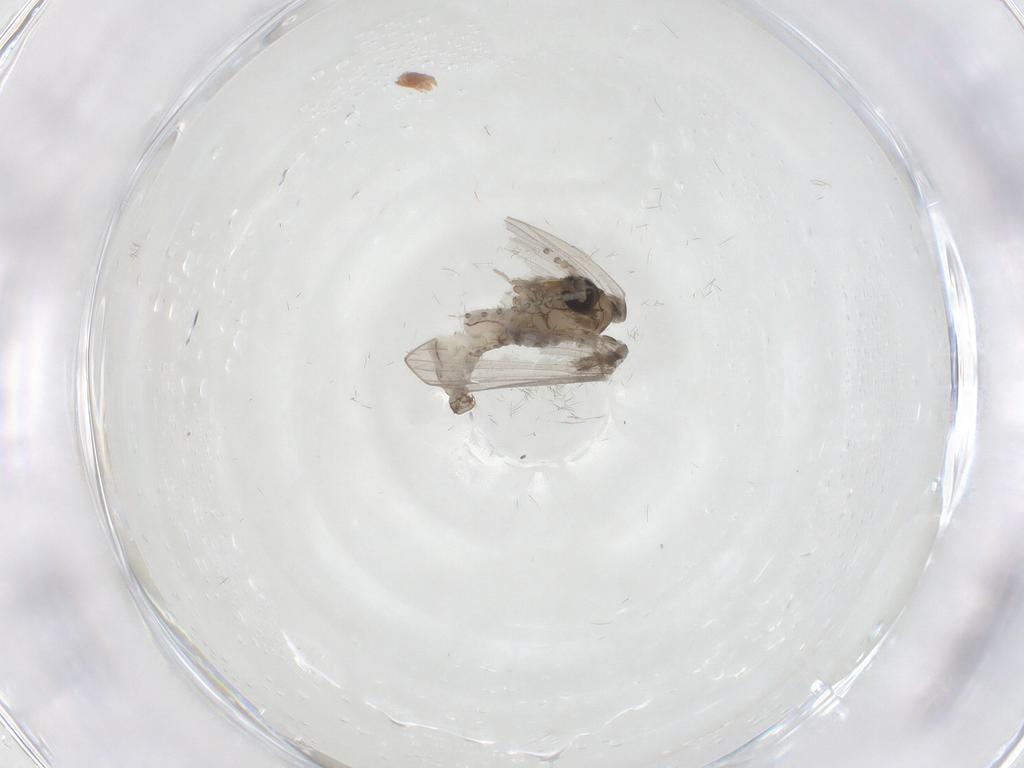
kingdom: Animalia
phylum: Arthropoda
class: Insecta
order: Diptera
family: Psychodidae
